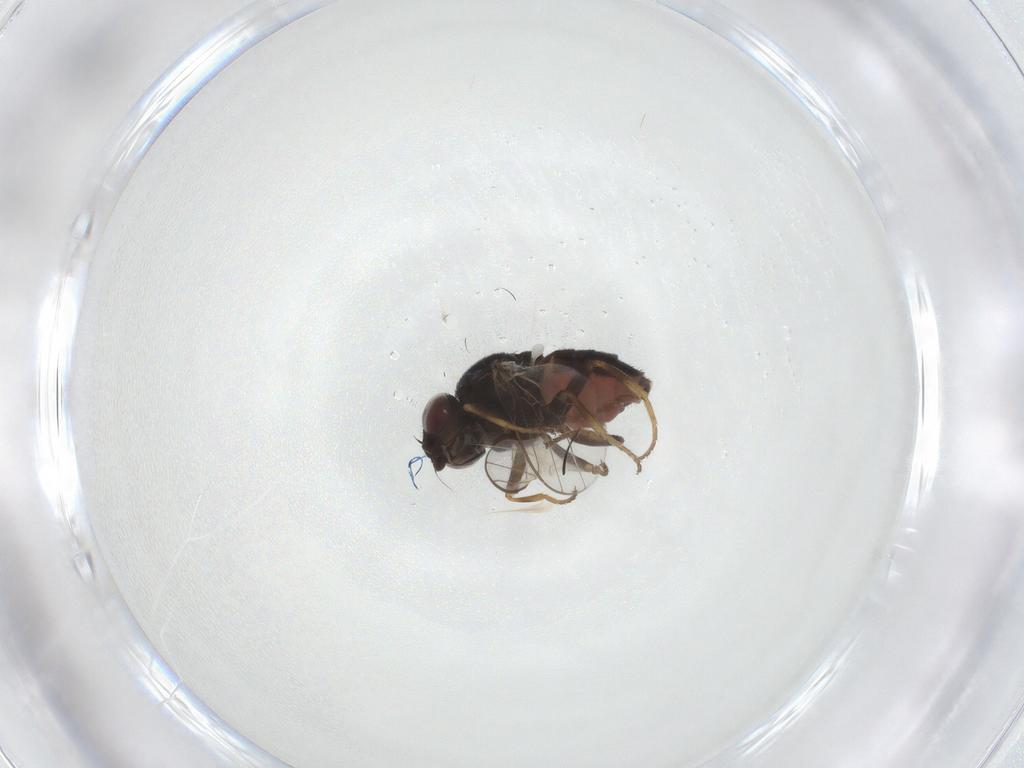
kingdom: Animalia
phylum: Arthropoda
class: Insecta
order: Diptera
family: Chloropidae
